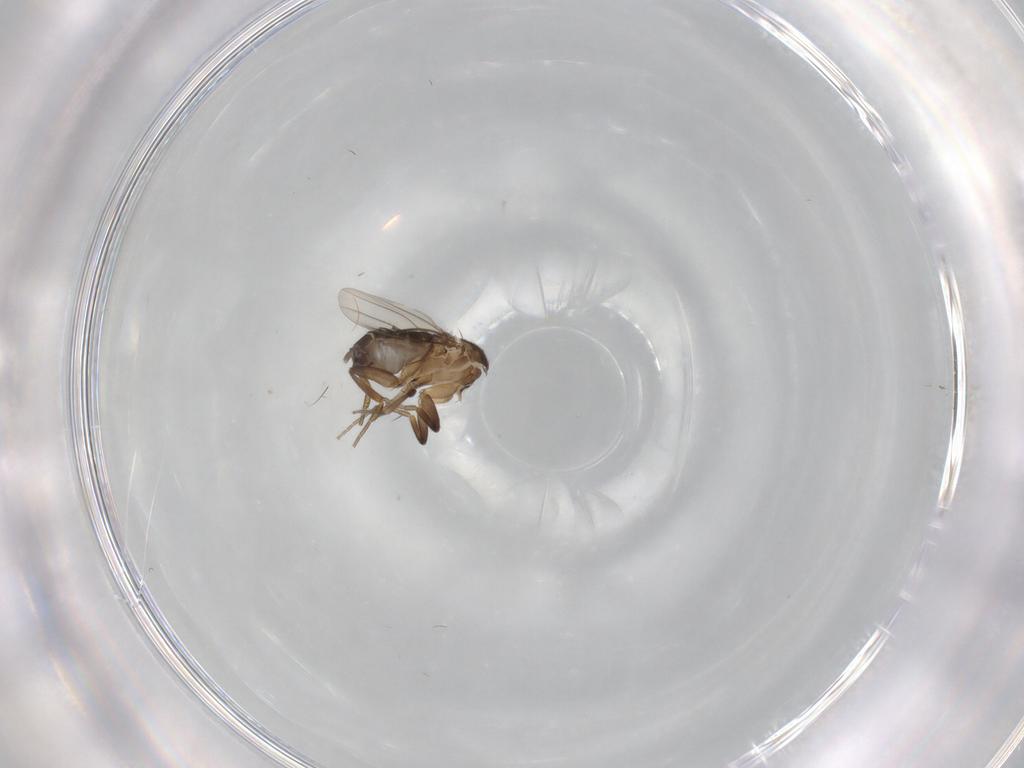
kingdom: Animalia
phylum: Arthropoda
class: Insecta
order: Diptera
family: Phoridae
